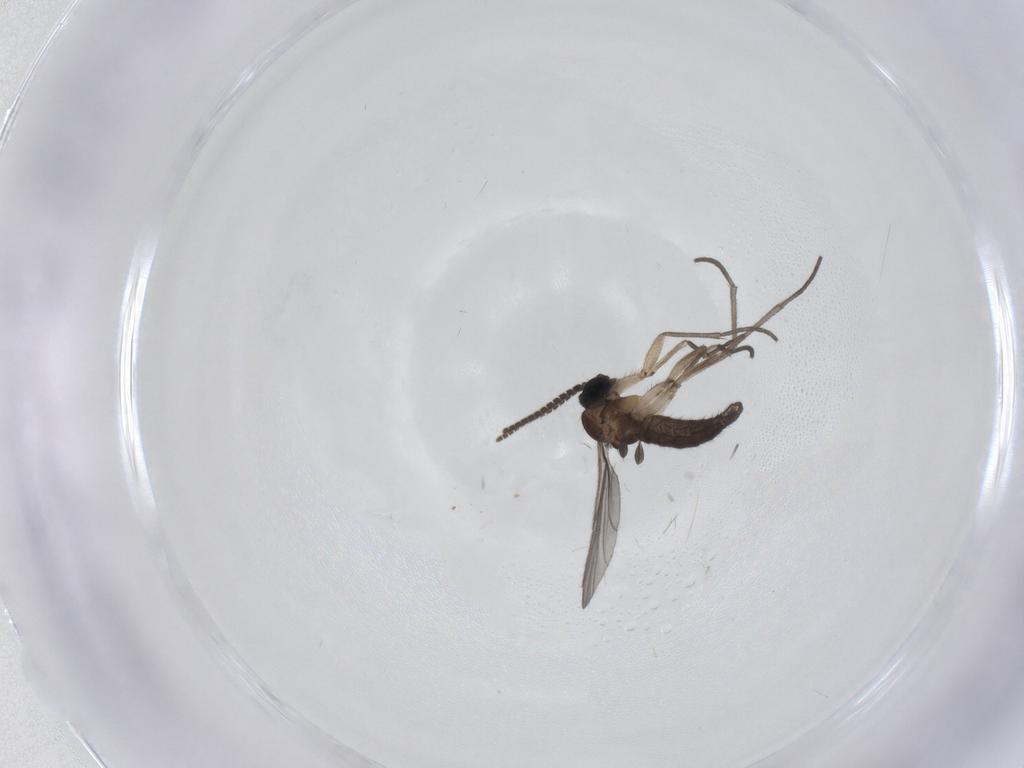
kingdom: Animalia
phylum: Arthropoda
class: Insecta
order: Diptera
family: Sciaridae
